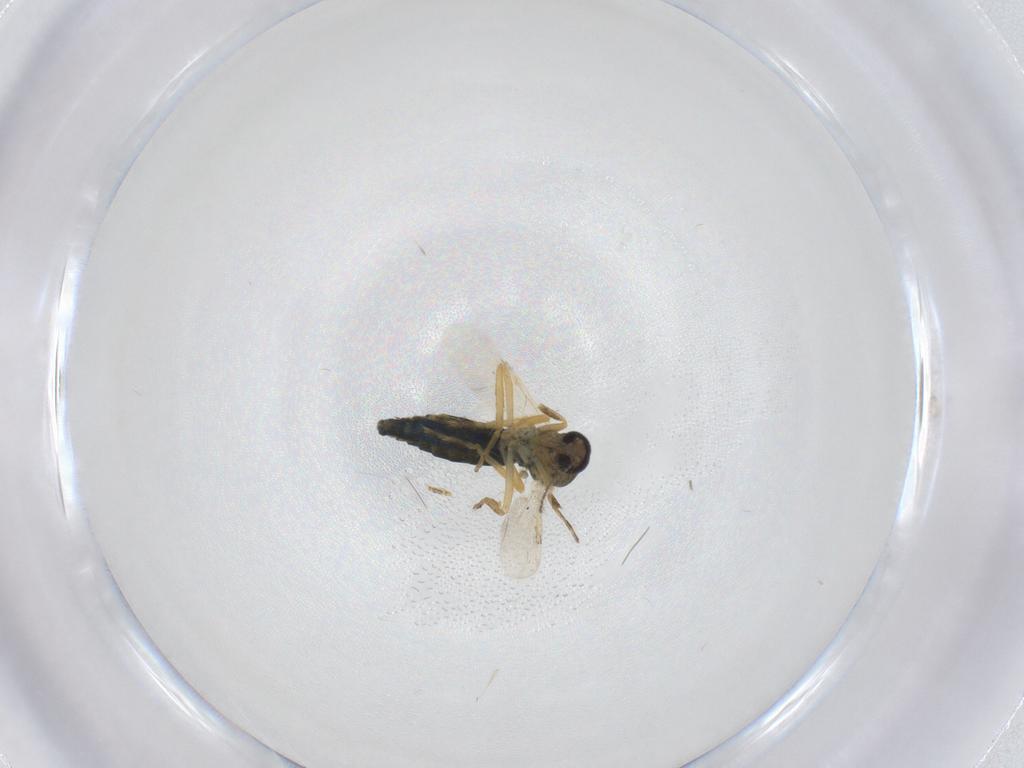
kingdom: Animalia
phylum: Arthropoda
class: Insecta
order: Diptera
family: Ceratopogonidae
